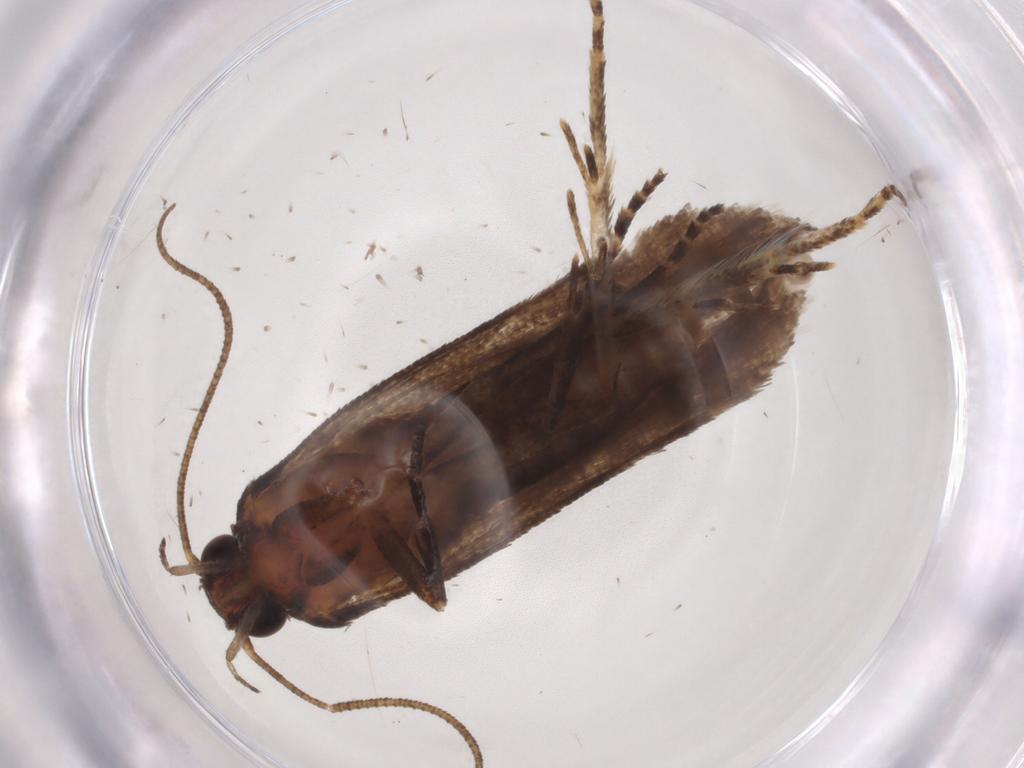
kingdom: Animalia
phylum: Arthropoda
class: Insecta
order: Lepidoptera
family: Gelechiidae
